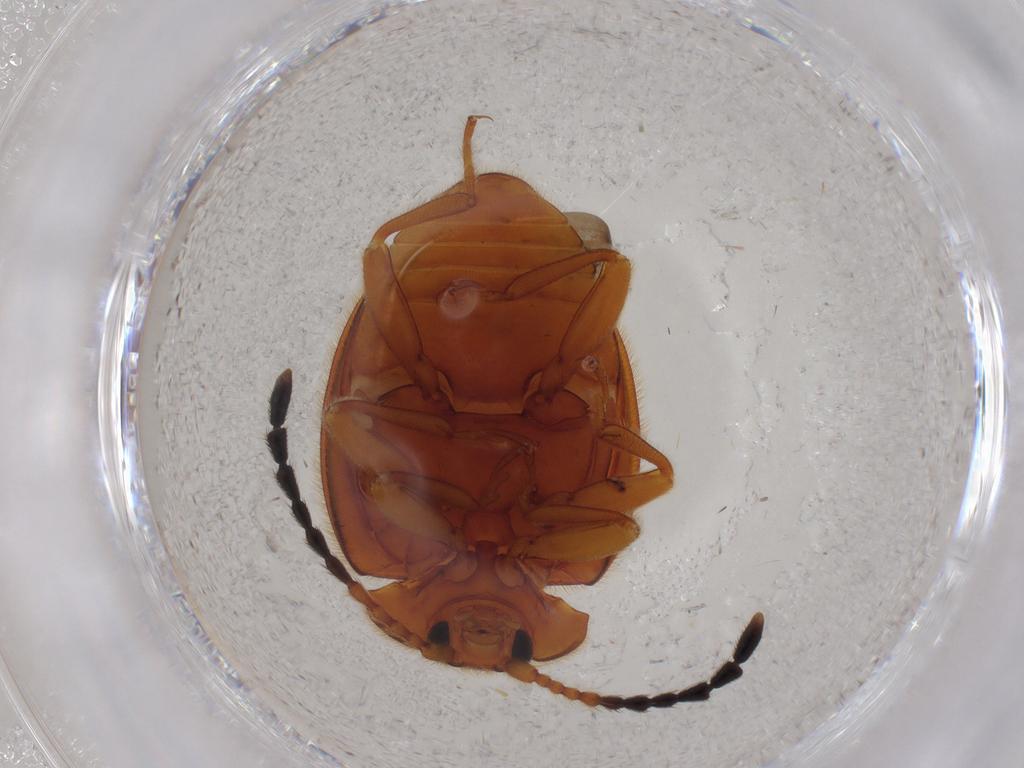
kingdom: Animalia
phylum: Arthropoda
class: Insecta
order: Coleoptera
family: Endomychidae
